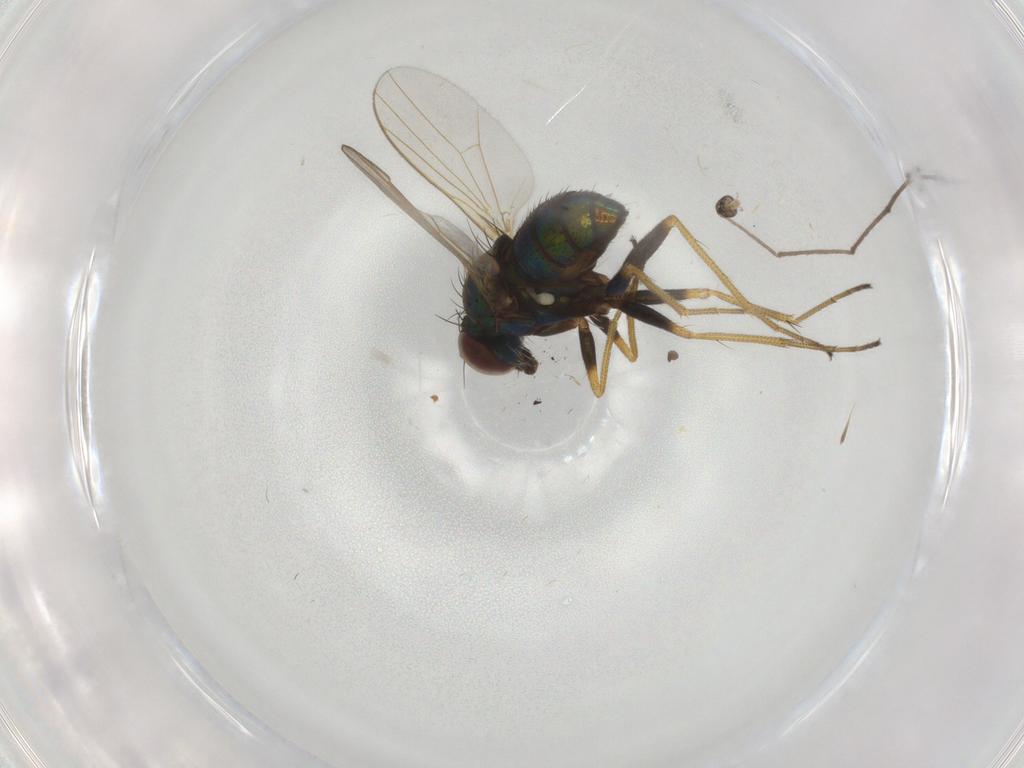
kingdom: Animalia
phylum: Arthropoda
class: Insecta
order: Diptera
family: Dolichopodidae
